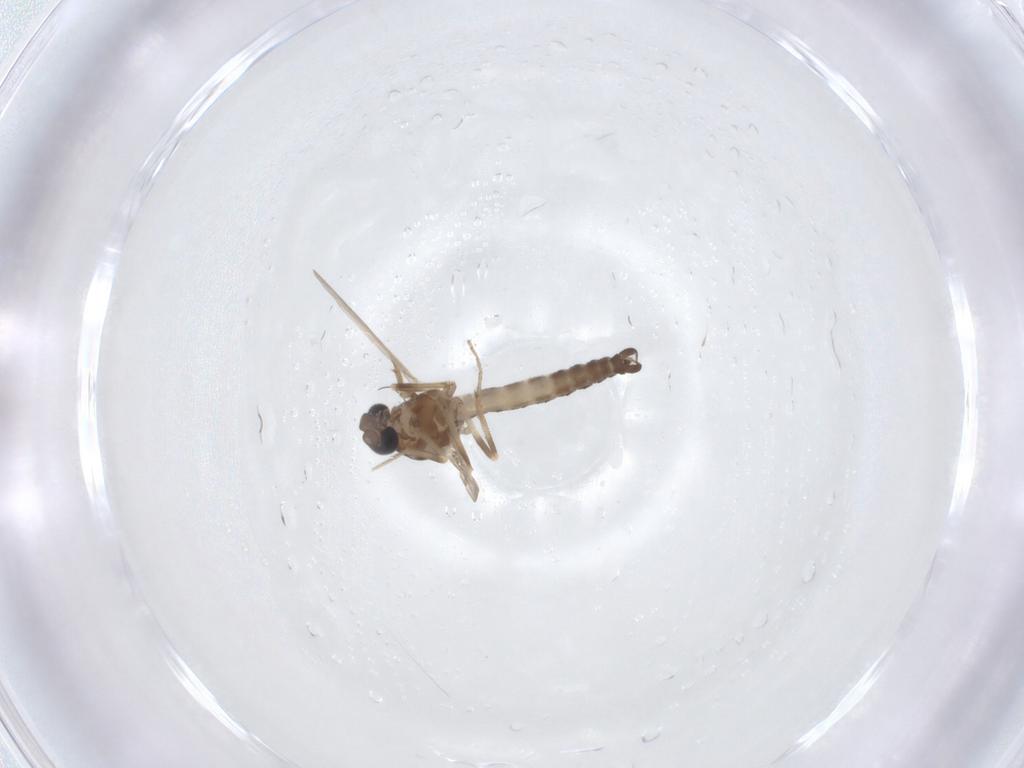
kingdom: Animalia
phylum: Arthropoda
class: Insecta
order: Diptera
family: Ceratopogonidae
